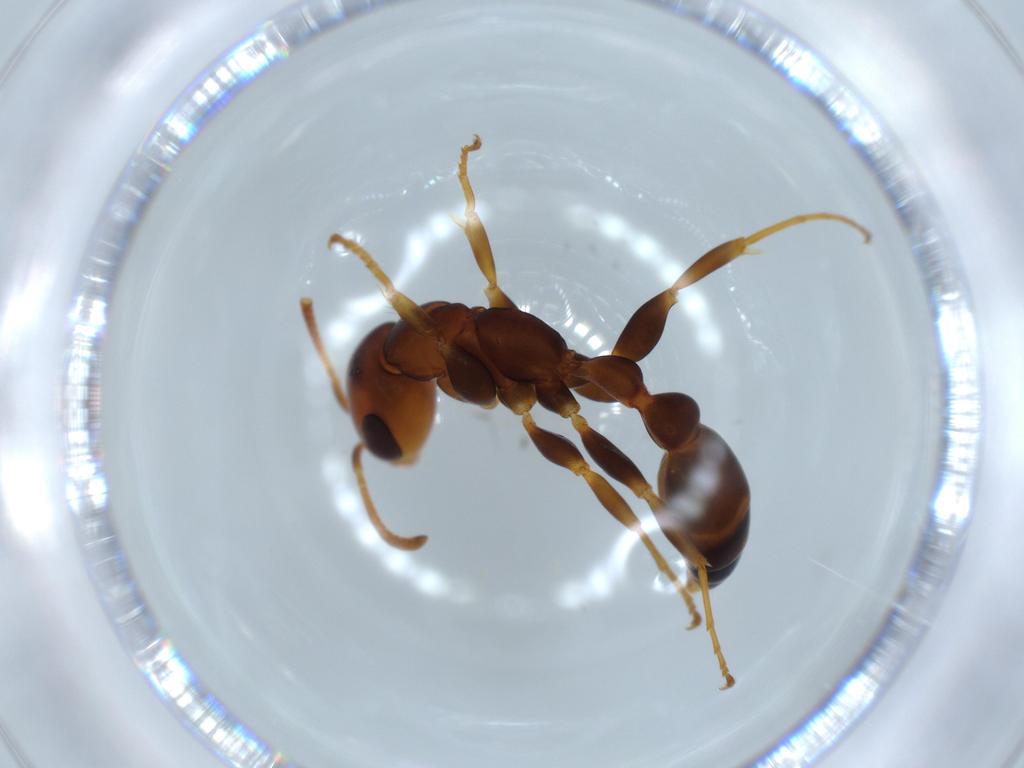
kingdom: Animalia
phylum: Arthropoda
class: Insecta
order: Hymenoptera
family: Formicidae
